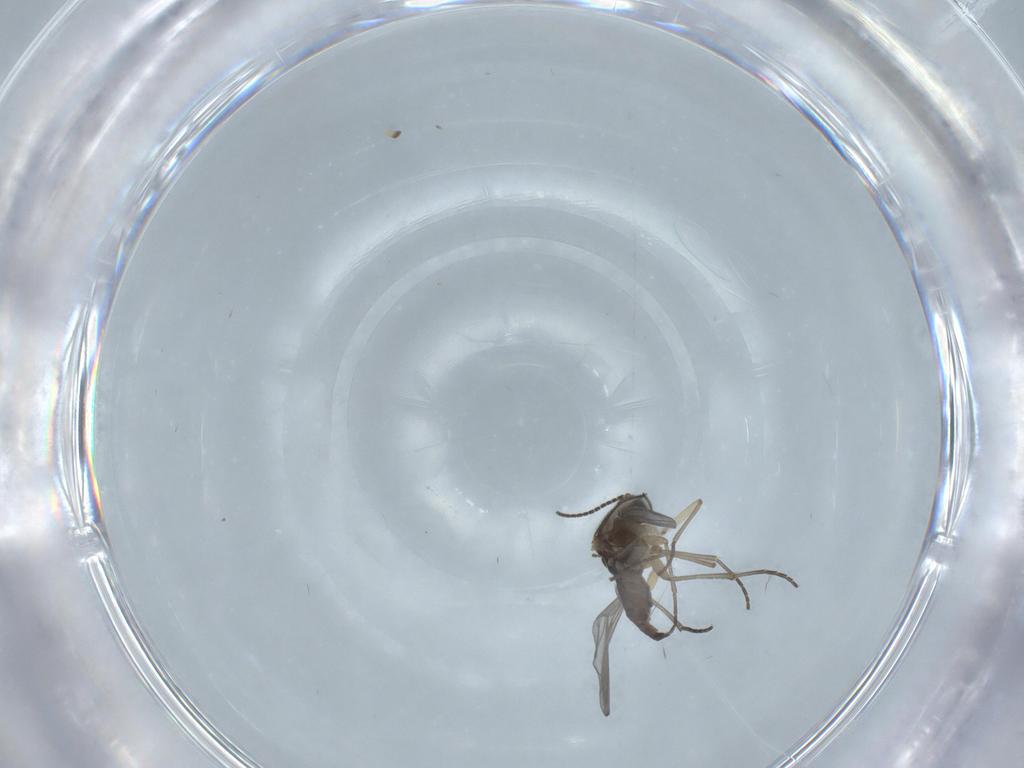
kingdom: Animalia
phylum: Arthropoda
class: Insecta
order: Diptera
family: Sciaridae
